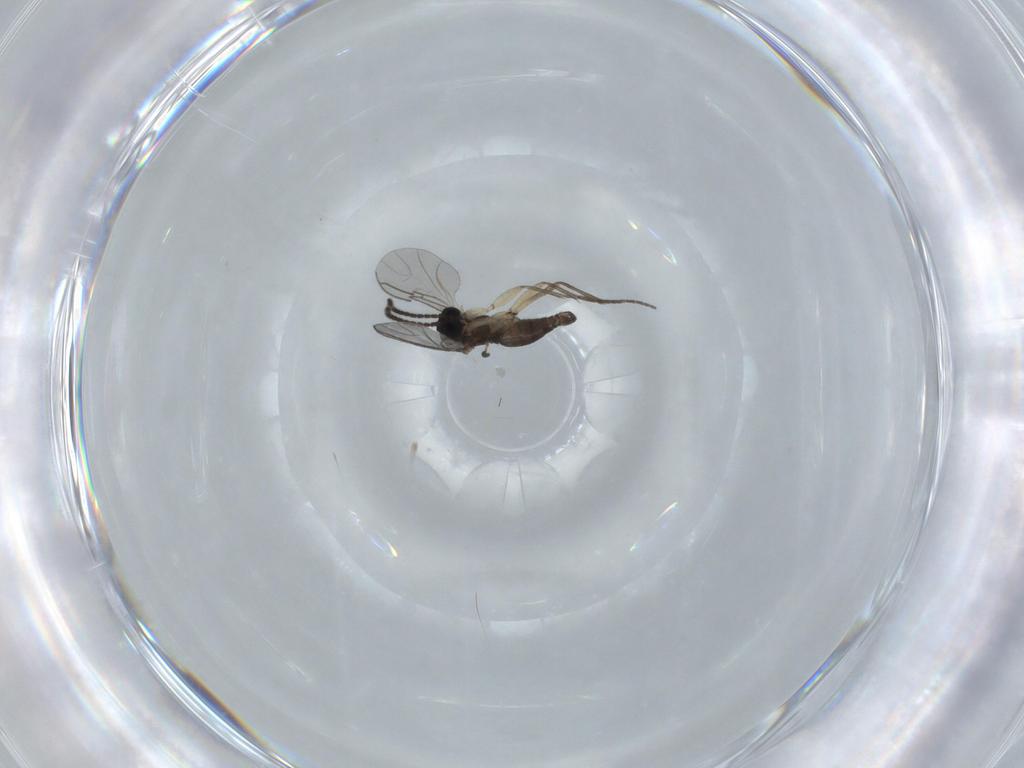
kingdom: Animalia
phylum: Arthropoda
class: Insecta
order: Diptera
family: Sciaridae
